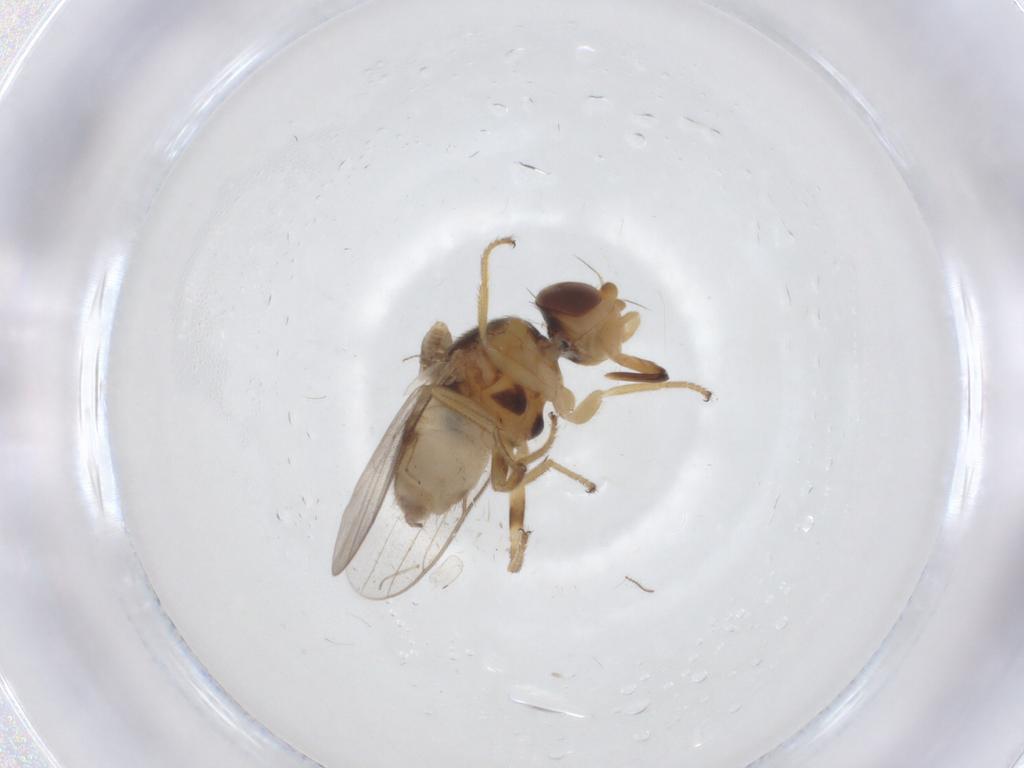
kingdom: Animalia
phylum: Arthropoda
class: Insecta
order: Diptera
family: Chloropidae
